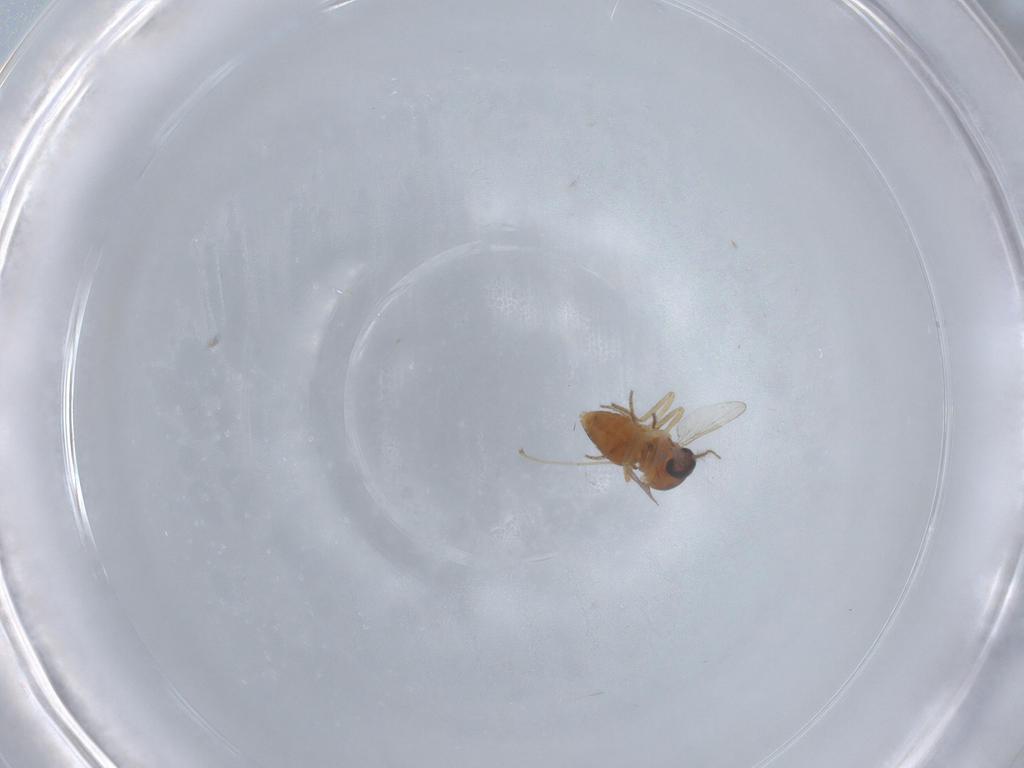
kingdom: Animalia
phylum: Arthropoda
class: Insecta
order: Diptera
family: Ceratopogonidae
